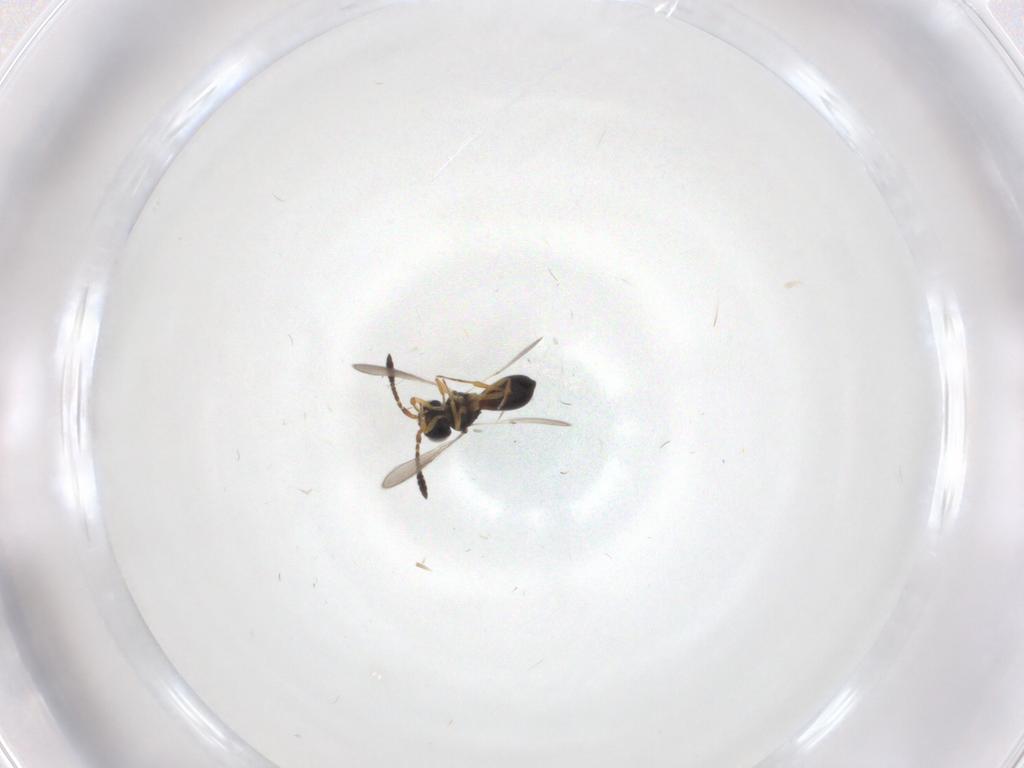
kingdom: Animalia
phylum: Arthropoda
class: Insecta
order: Hymenoptera
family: Scelionidae
